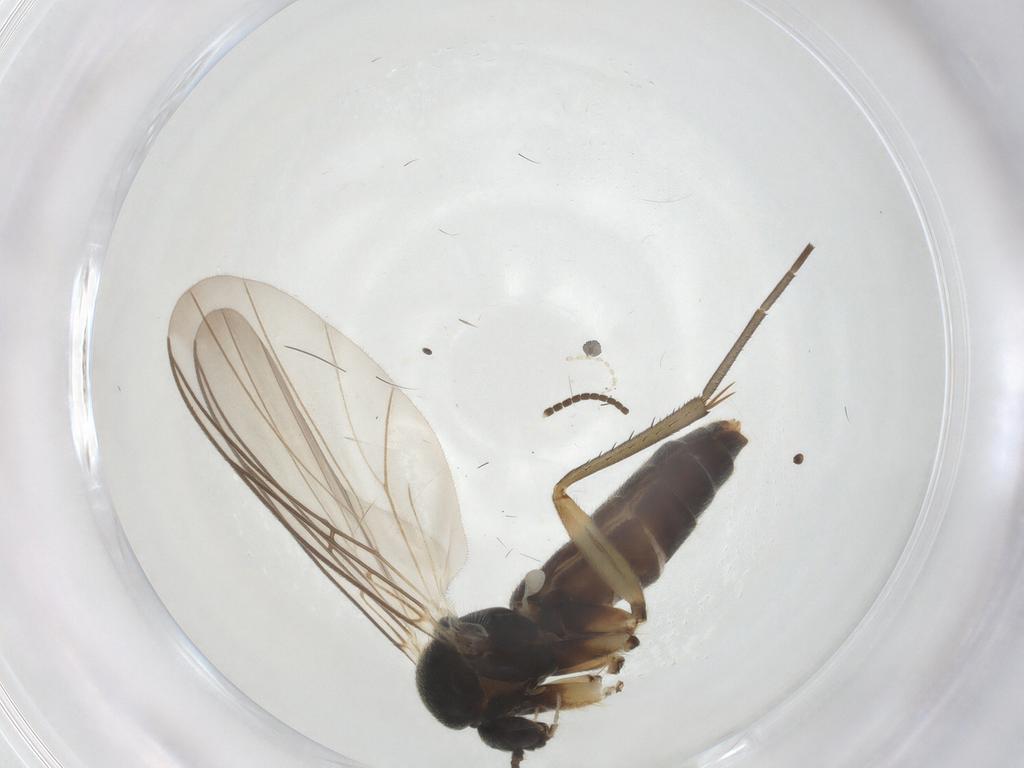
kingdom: Animalia
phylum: Arthropoda
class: Insecta
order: Diptera
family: Mycetophilidae
